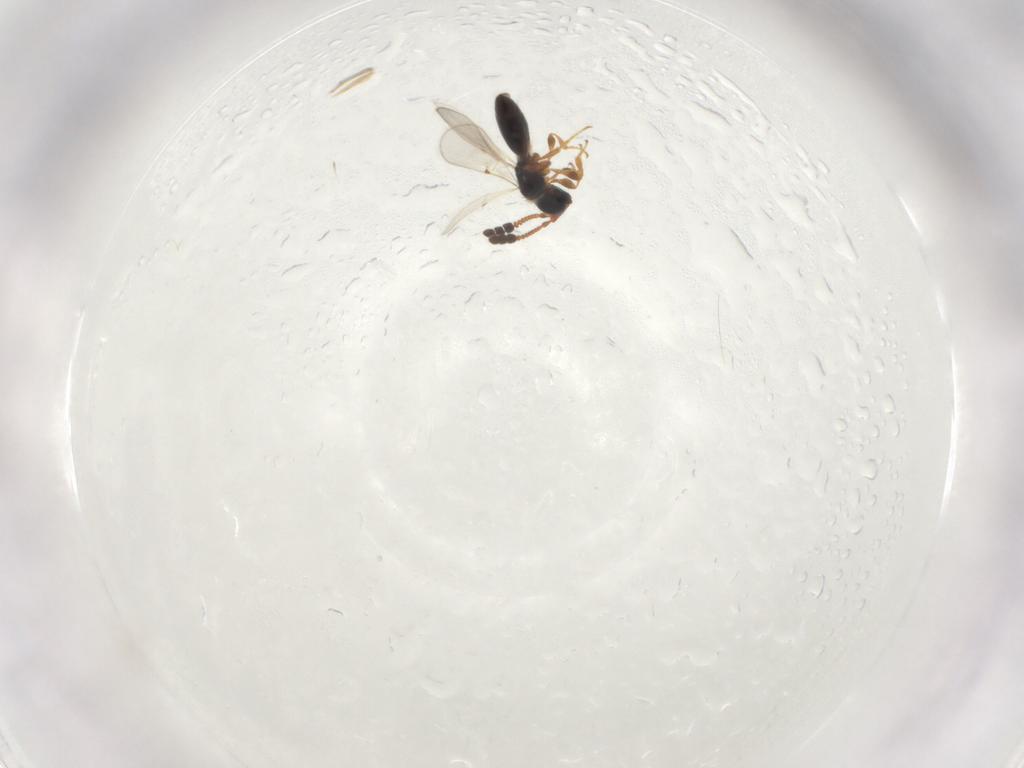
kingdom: Animalia
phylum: Arthropoda
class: Insecta
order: Hymenoptera
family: Diapriidae
